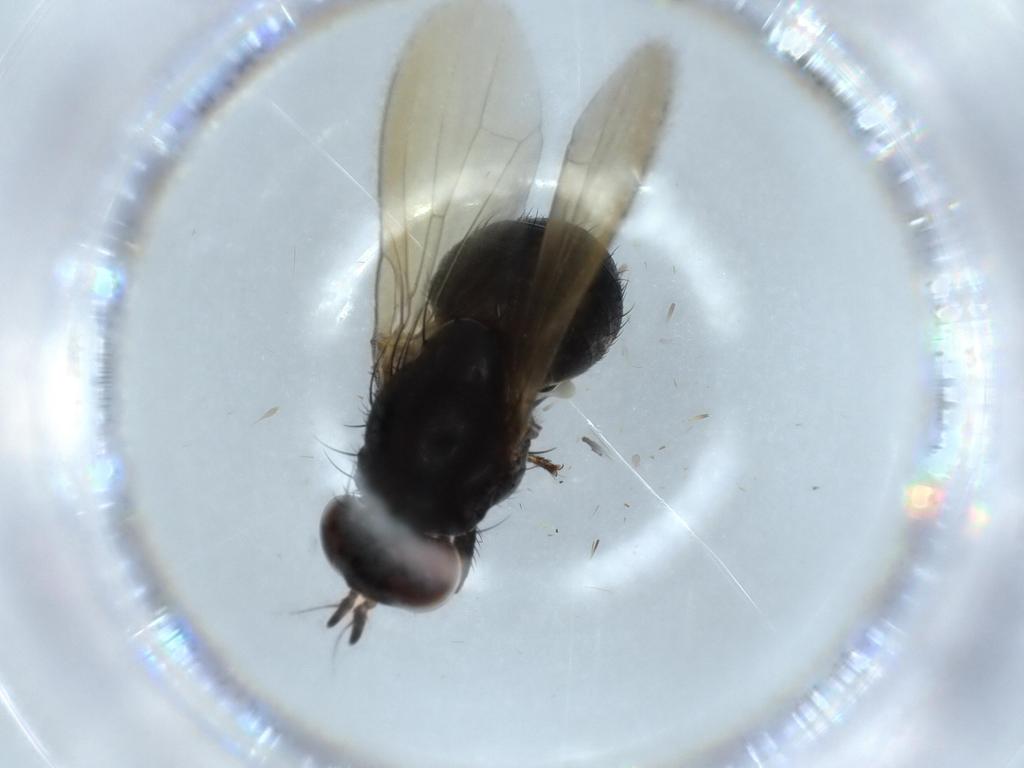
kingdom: Animalia
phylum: Arthropoda
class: Insecta
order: Diptera
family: Lauxaniidae
